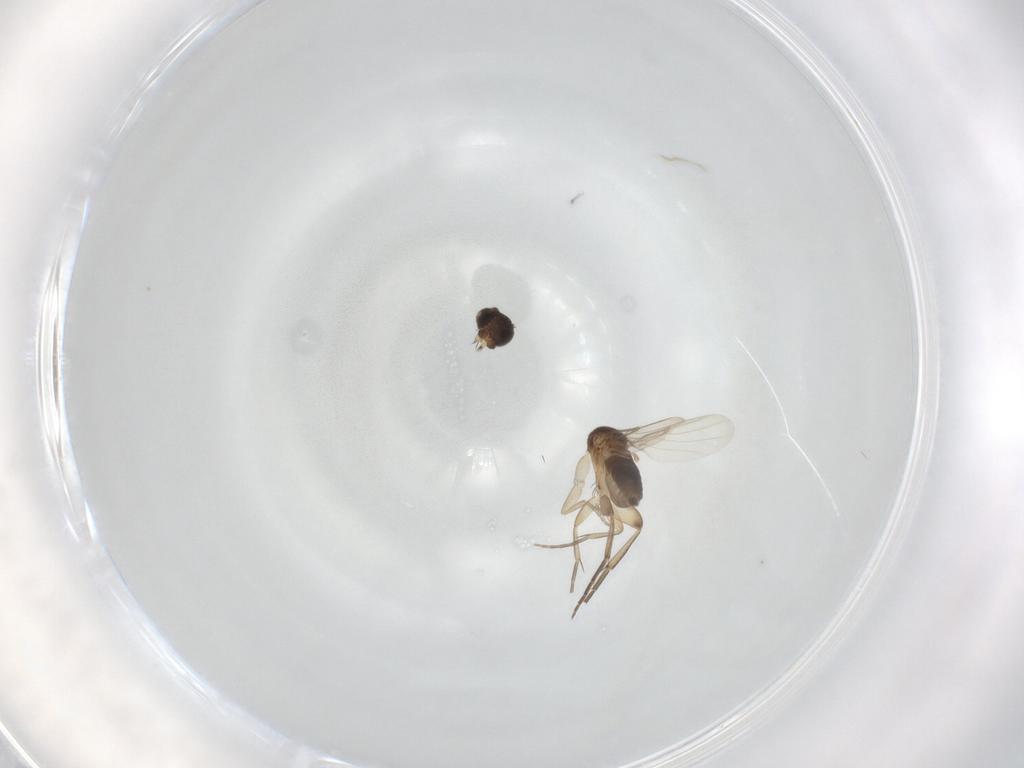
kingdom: Animalia
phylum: Arthropoda
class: Insecta
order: Diptera
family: Phoridae
